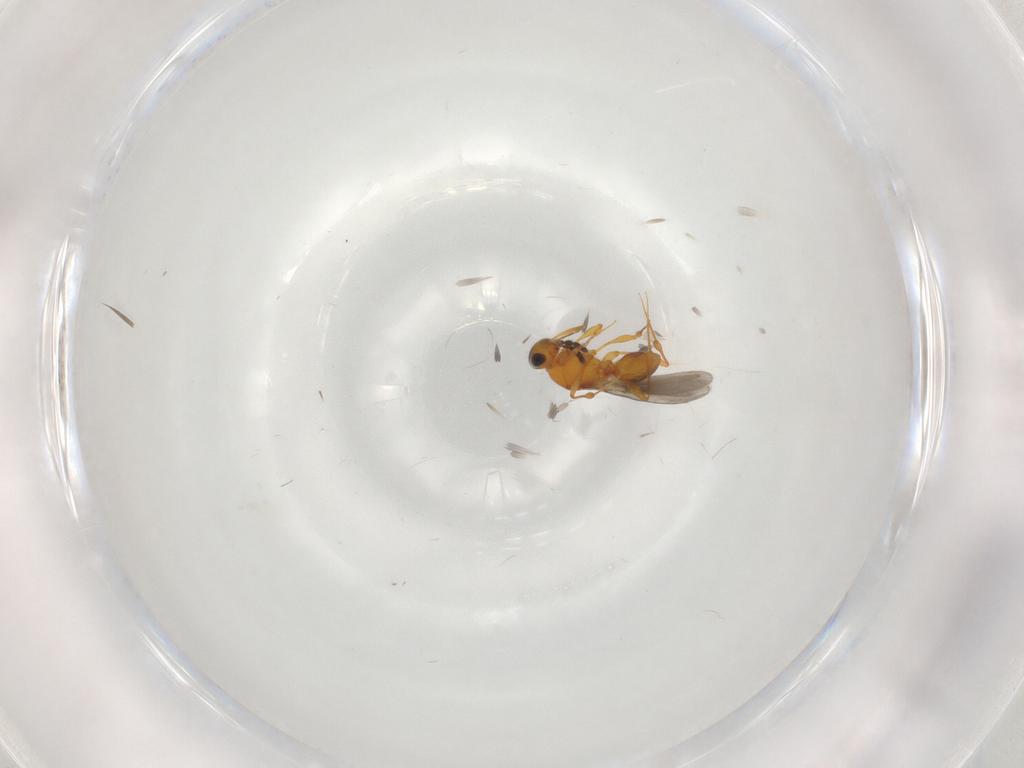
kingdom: Animalia
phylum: Arthropoda
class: Insecta
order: Hymenoptera
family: Platygastridae
